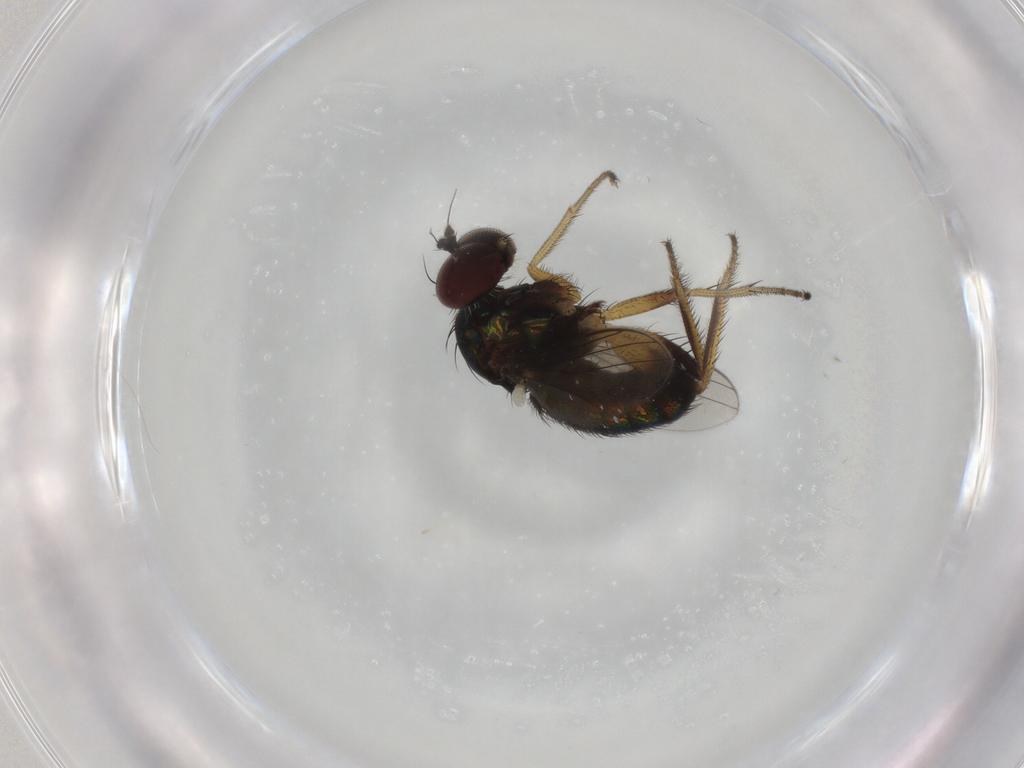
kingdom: Animalia
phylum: Arthropoda
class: Insecta
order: Diptera
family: Dolichopodidae
